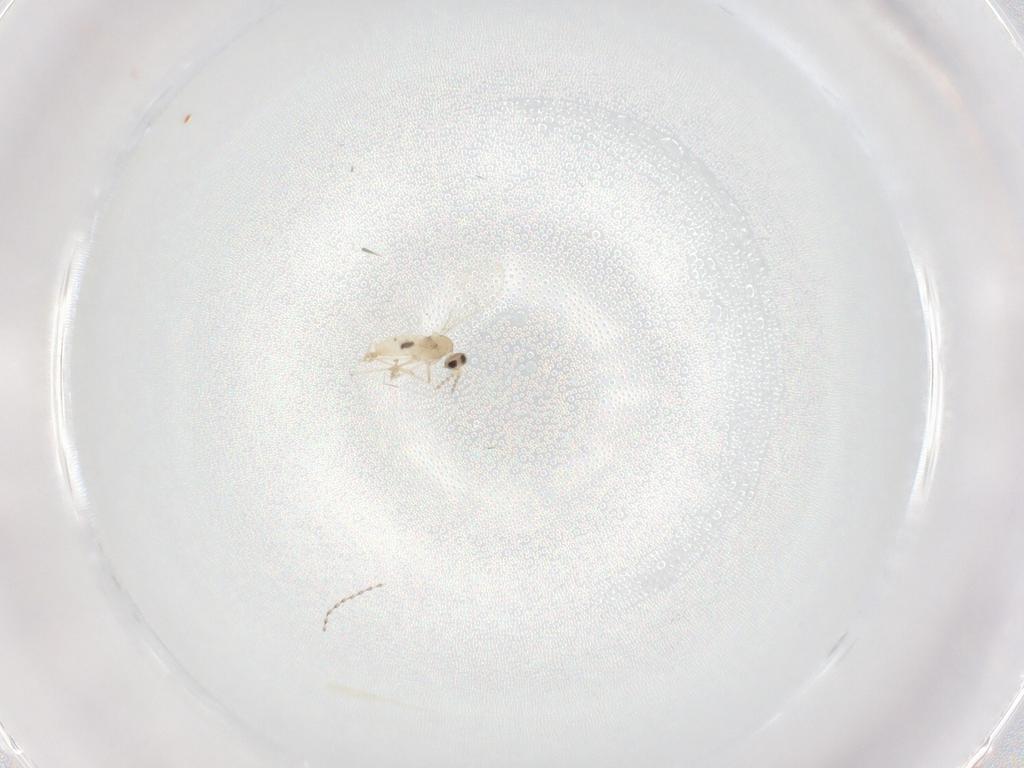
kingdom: Animalia
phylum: Arthropoda
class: Insecta
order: Diptera
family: Cecidomyiidae
